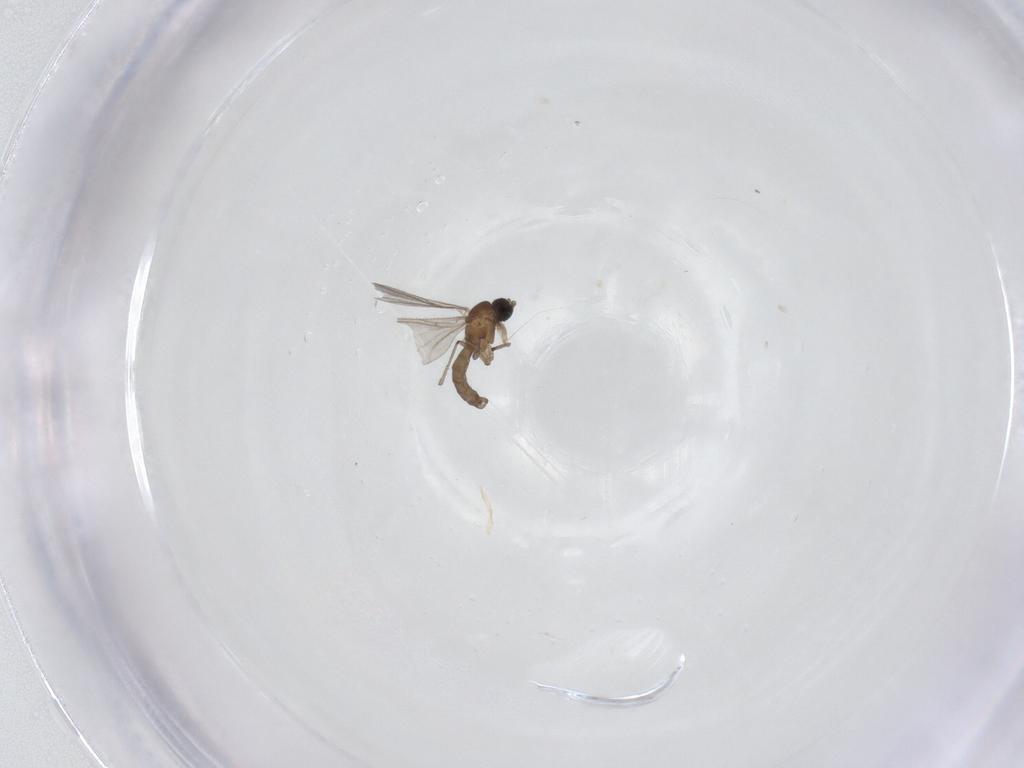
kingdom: Animalia
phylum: Arthropoda
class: Insecta
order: Diptera
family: Sciaridae
